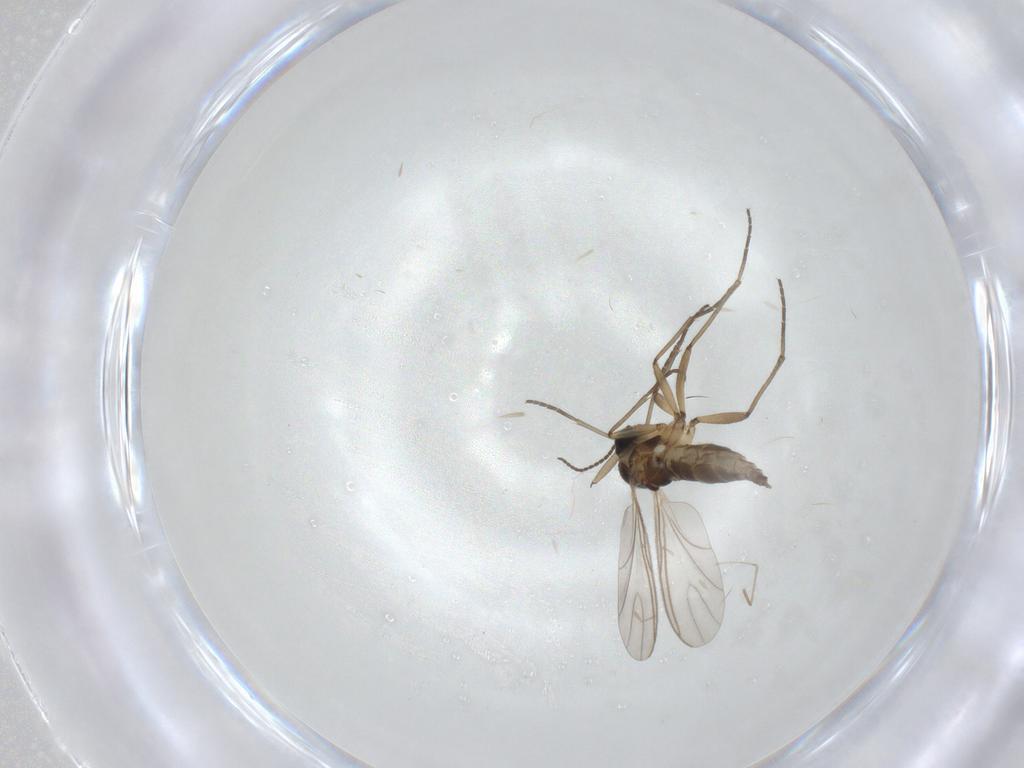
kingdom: Animalia
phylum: Arthropoda
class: Insecta
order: Diptera
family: Cecidomyiidae
